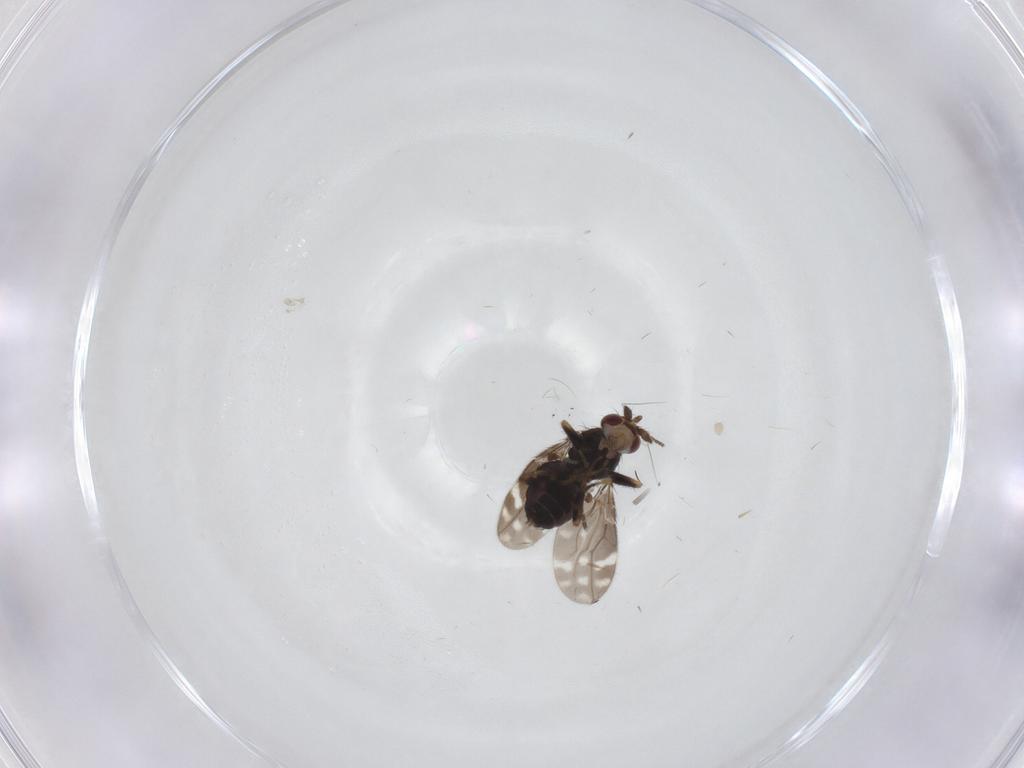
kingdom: Animalia
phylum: Arthropoda
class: Insecta
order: Diptera
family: Sphaeroceridae
